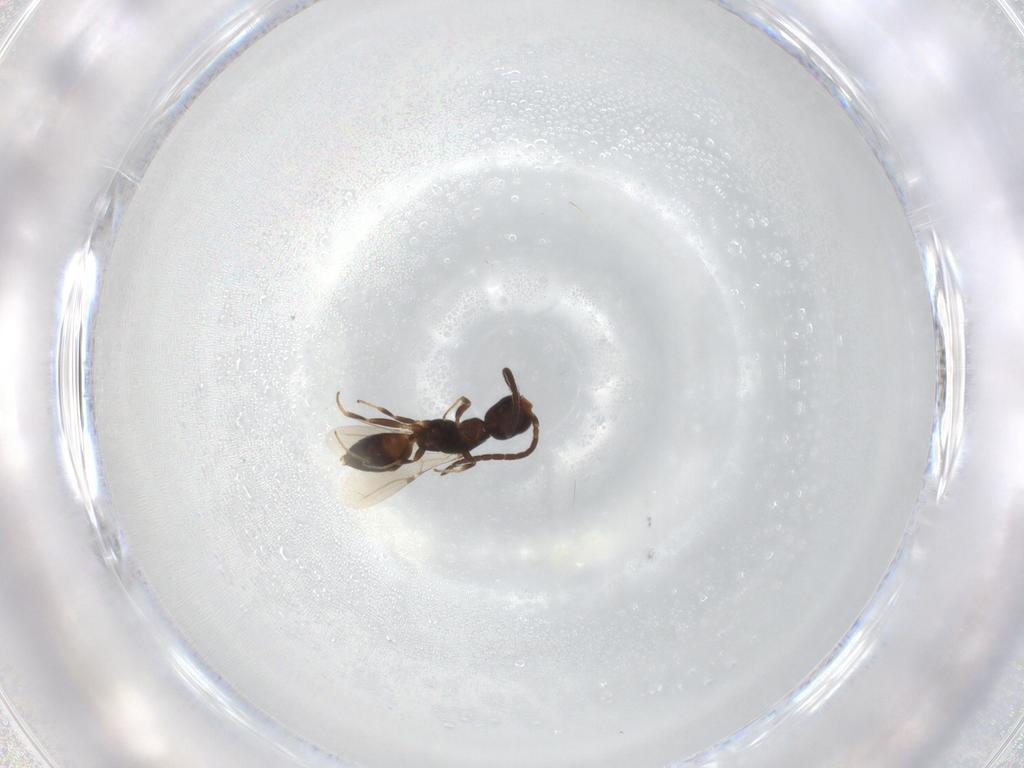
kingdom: Animalia
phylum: Arthropoda
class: Insecta
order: Hymenoptera
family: Bethylidae
